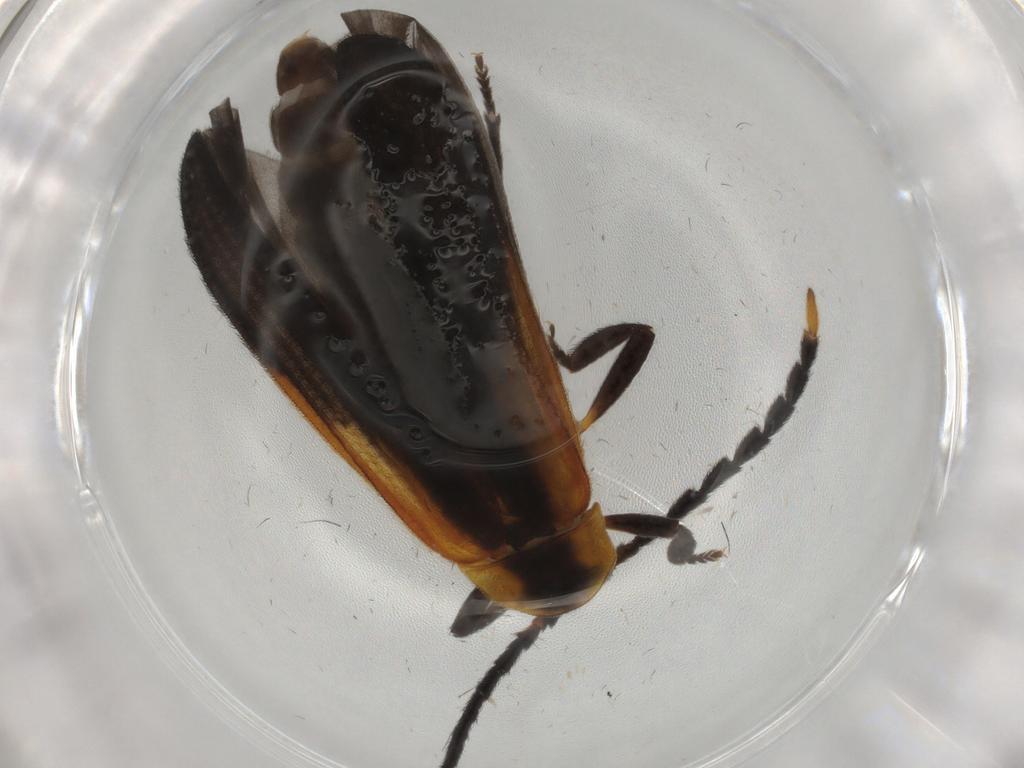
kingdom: Animalia
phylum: Arthropoda
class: Insecta
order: Coleoptera
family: Lycidae
